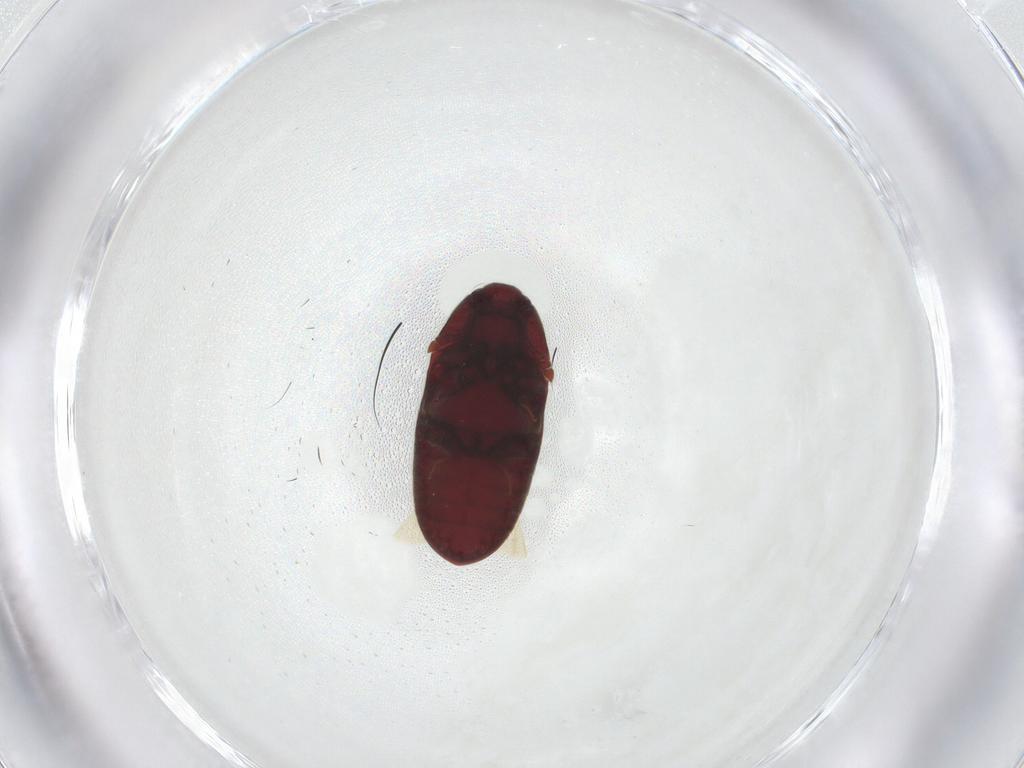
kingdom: Animalia
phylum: Arthropoda
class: Insecta
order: Coleoptera
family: Throscidae
